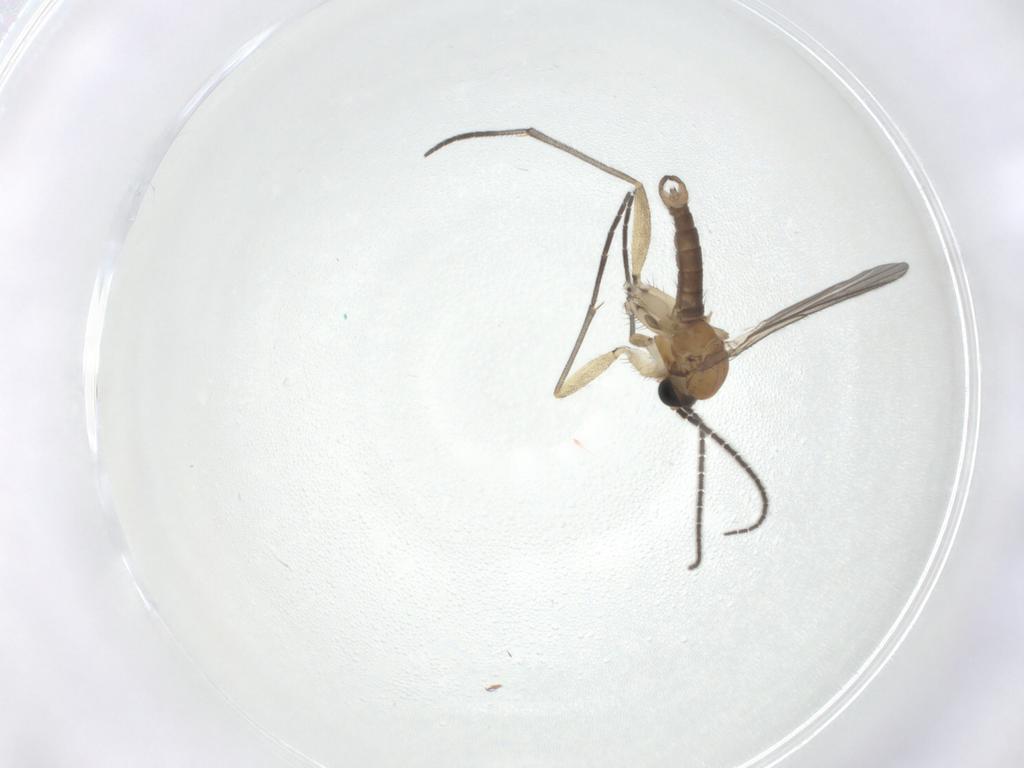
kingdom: Animalia
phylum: Arthropoda
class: Insecta
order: Diptera
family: Sciaridae
